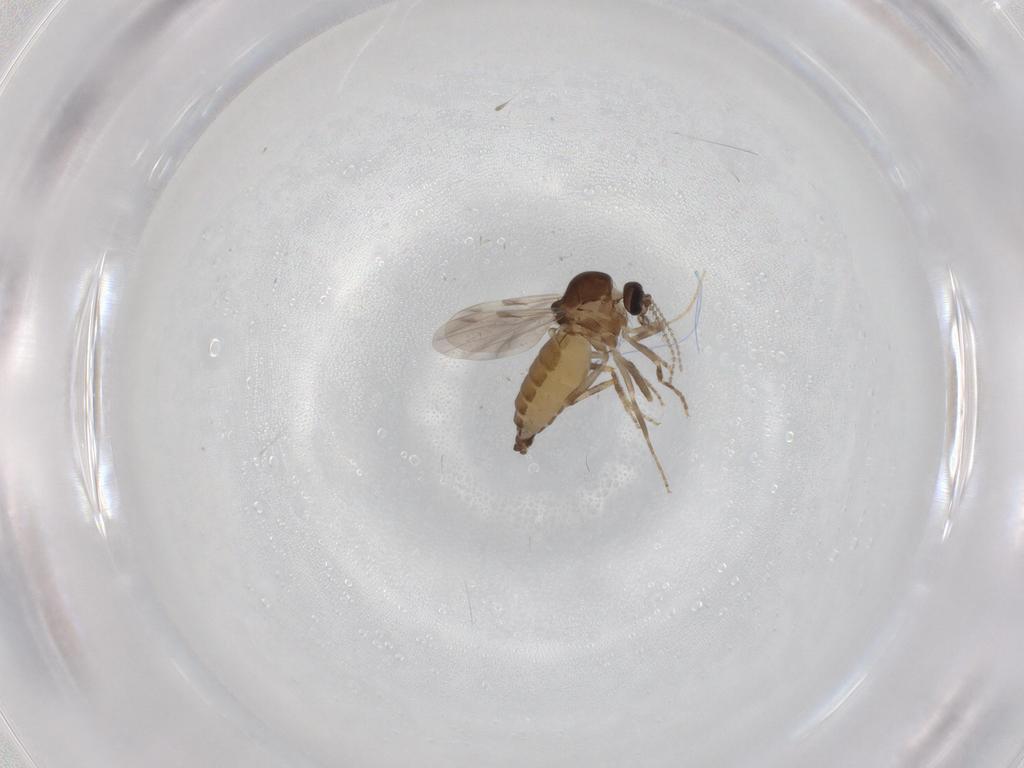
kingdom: Animalia
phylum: Arthropoda
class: Insecta
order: Diptera
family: Ceratopogonidae
